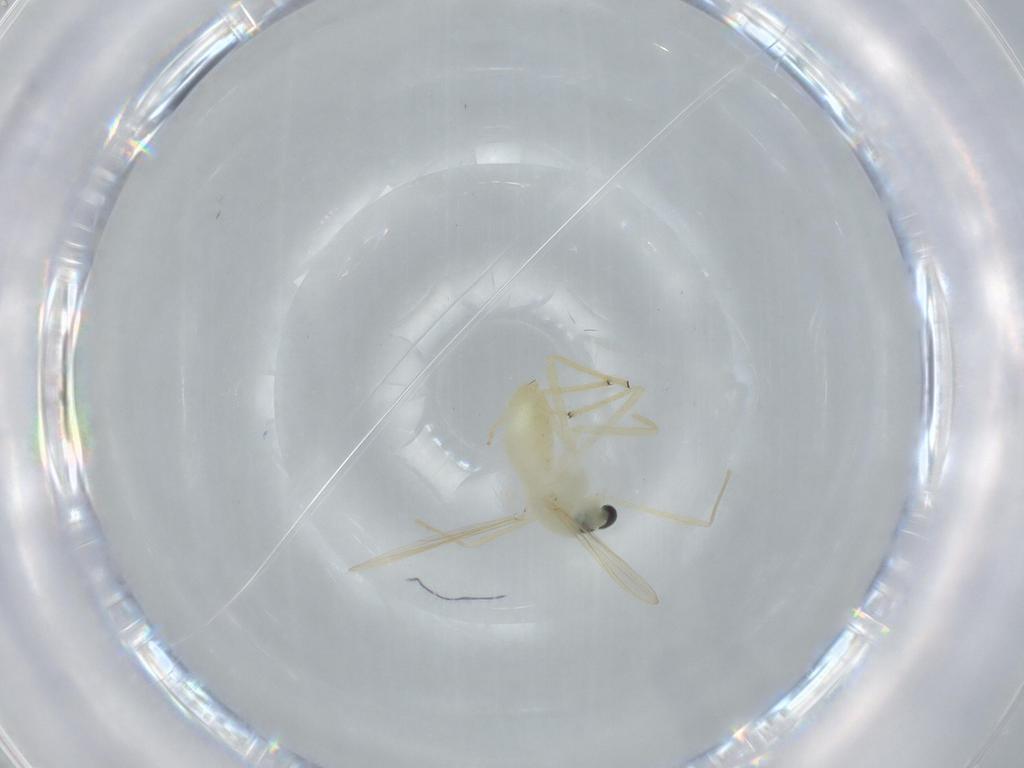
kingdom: Animalia
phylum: Arthropoda
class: Insecta
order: Diptera
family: Chironomidae
